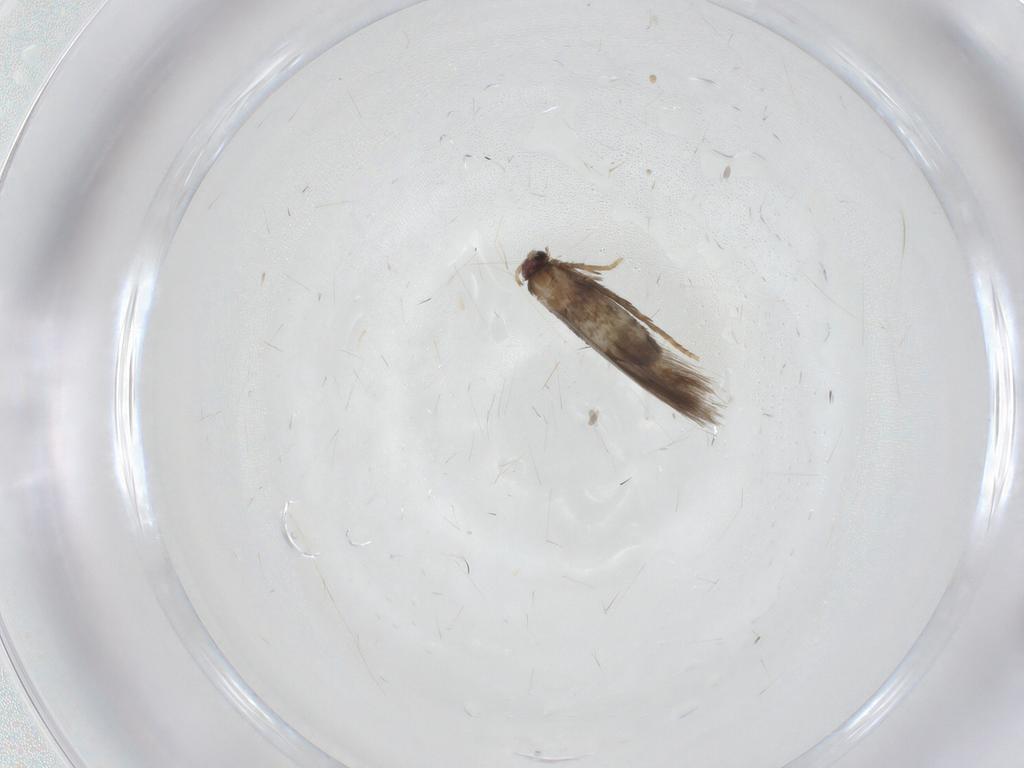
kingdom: Animalia
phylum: Arthropoda
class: Insecta
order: Lepidoptera
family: Nepticulidae
